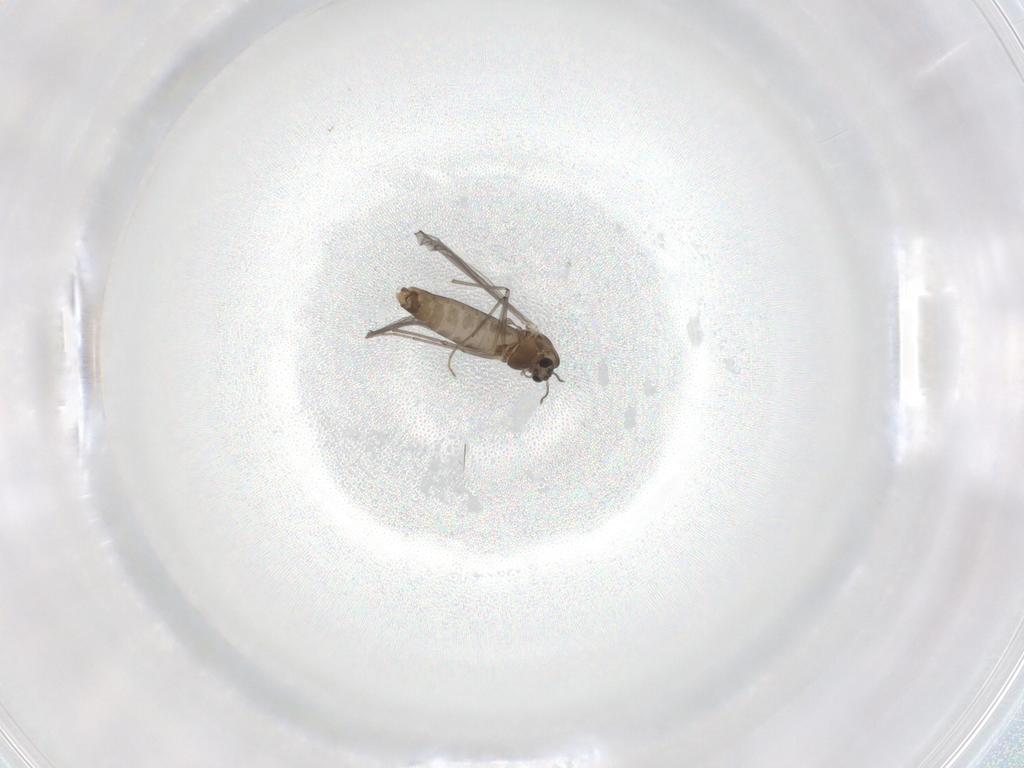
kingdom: Animalia
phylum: Arthropoda
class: Insecta
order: Diptera
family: Chironomidae
